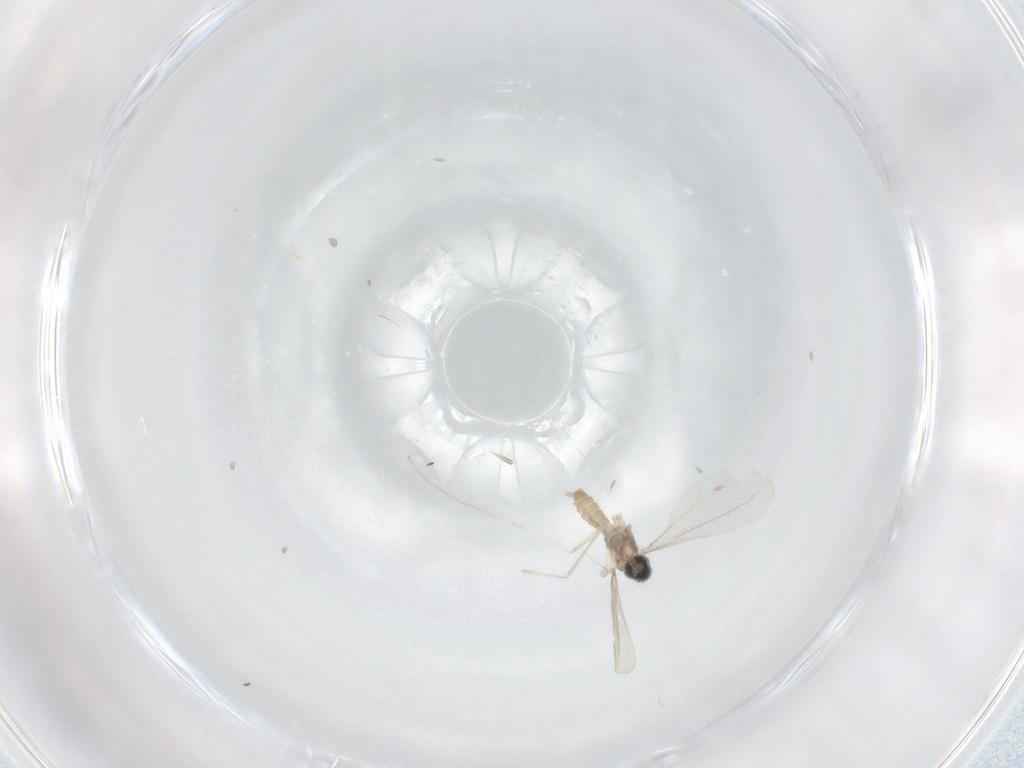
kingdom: Animalia
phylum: Arthropoda
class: Insecta
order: Diptera
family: Cecidomyiidae
